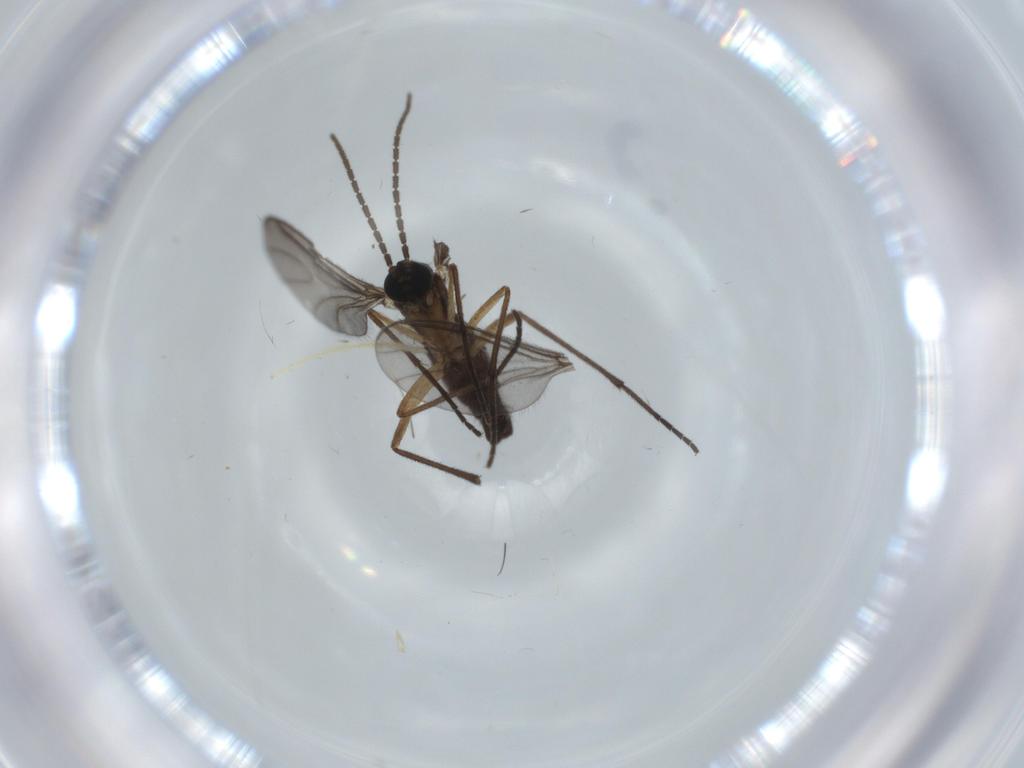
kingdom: Animalia
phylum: Arthropoda
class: Insecta
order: Diptera
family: Sciaridae
